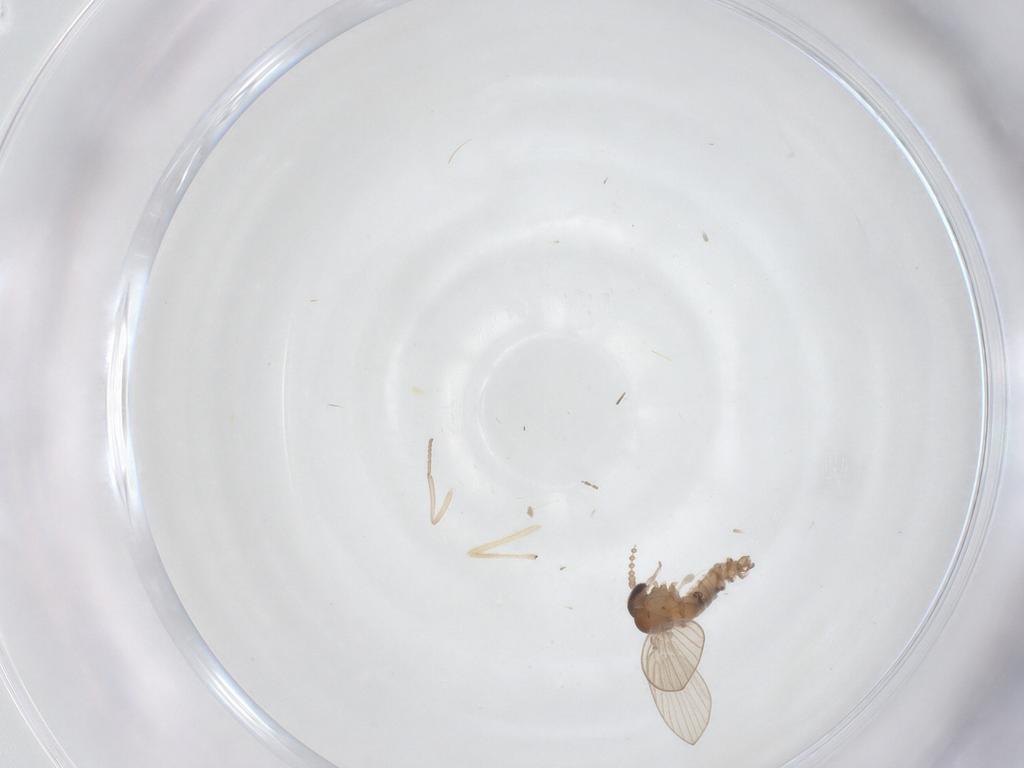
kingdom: Animalia
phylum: Arthropoda
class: Insecta
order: Diptera
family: Psychodidae
